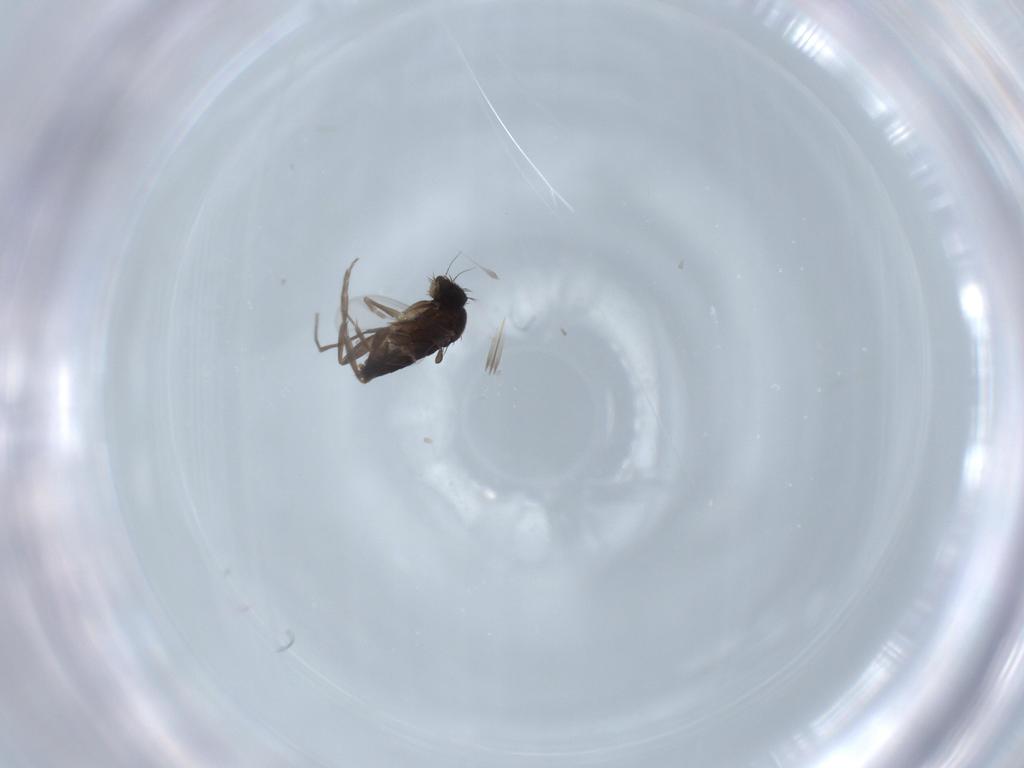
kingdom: Animalia
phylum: Arthropoda
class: Insecta
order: Diptera
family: Phoridae
